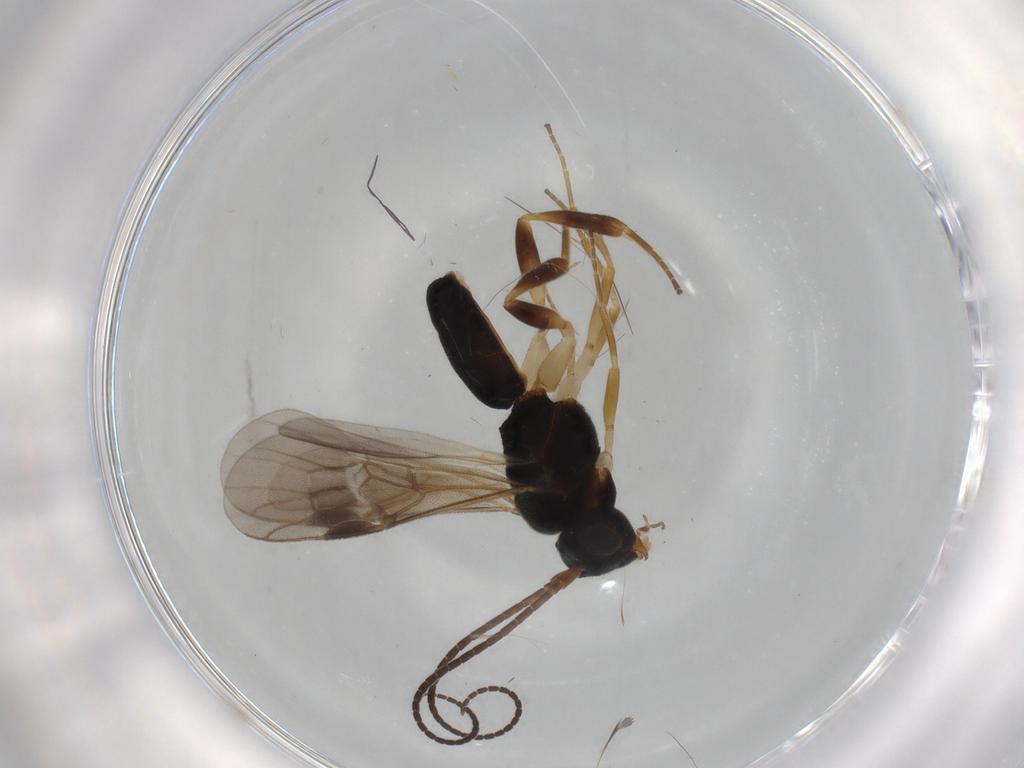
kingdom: Animalia
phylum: Arthropoda
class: Insecta
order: Hymenoptera
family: Braconidae
